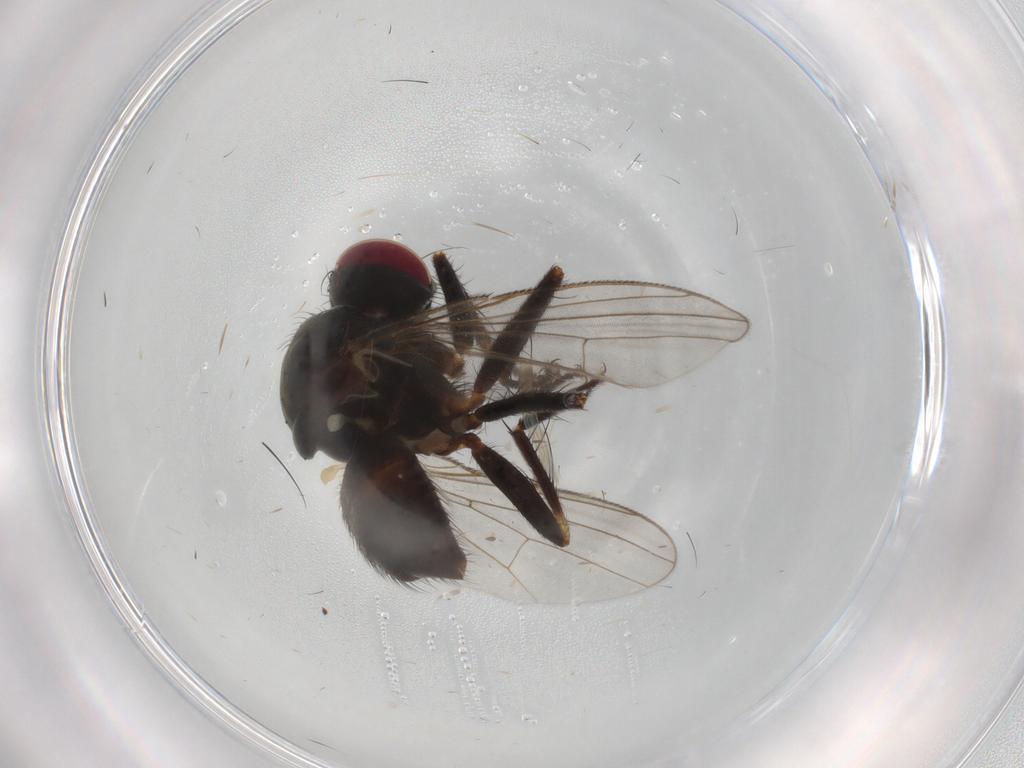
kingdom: Animalia
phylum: Arthropoda
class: Insecta
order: Diptera
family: Muscidae
